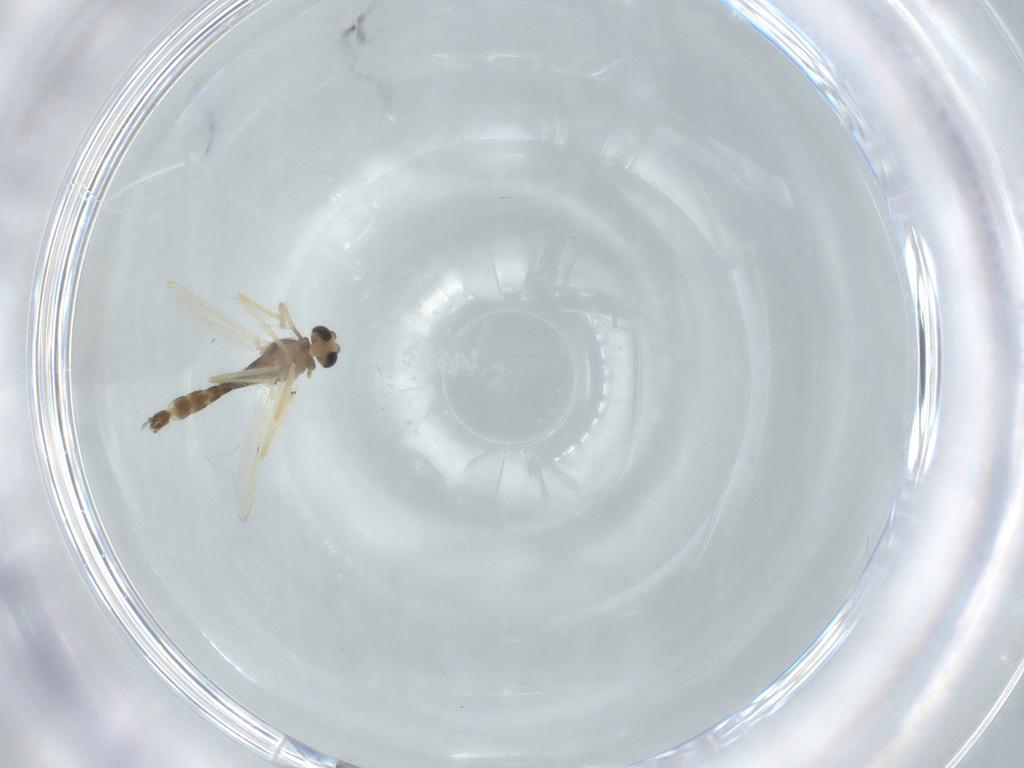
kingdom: Animalia
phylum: Arthropoda
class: Insecta
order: Diptera
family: Chironomidae
